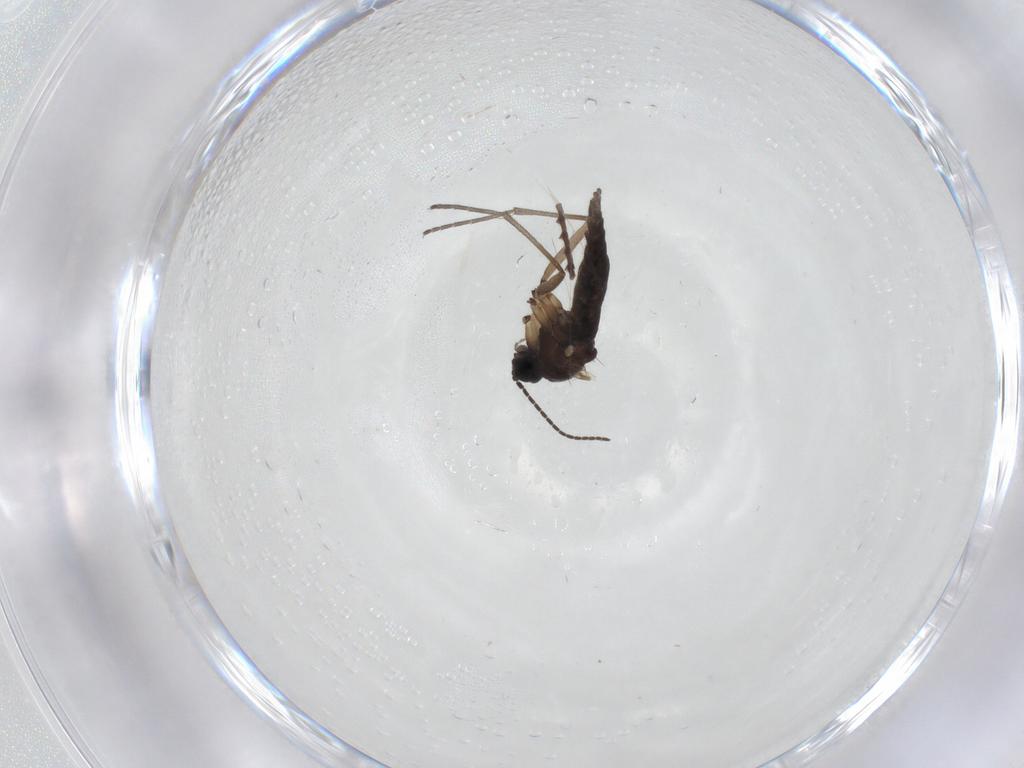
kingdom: Animalia
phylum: Arthropoda
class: Insecta
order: Diptera
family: Sciaridae
